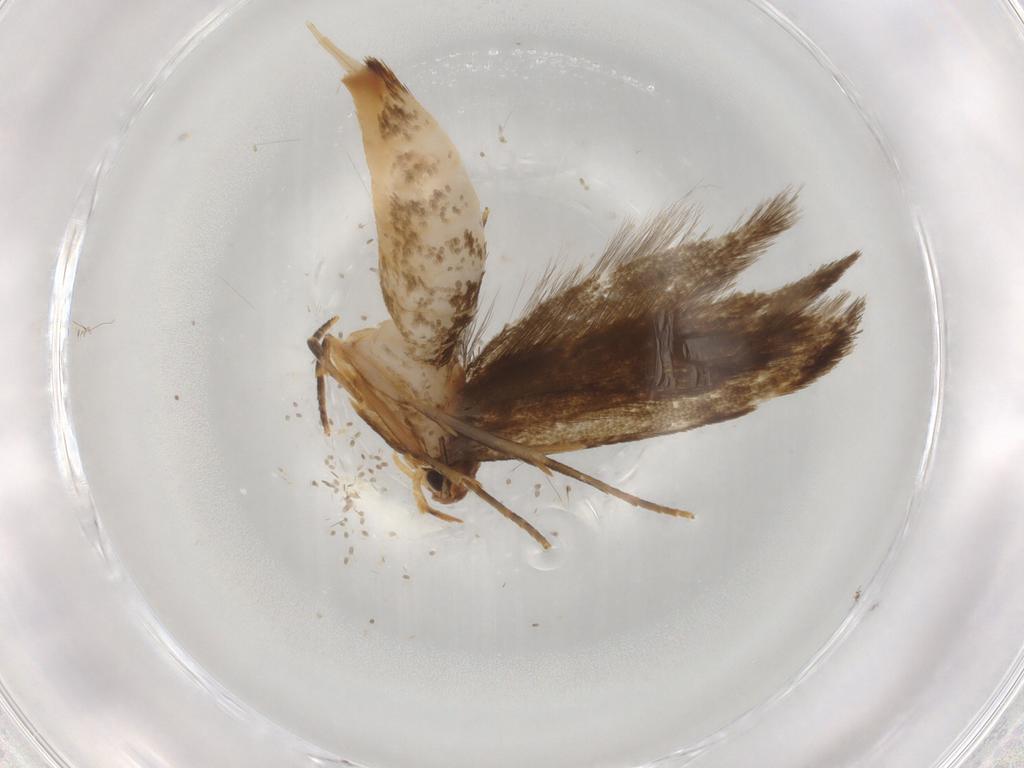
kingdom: Animalia
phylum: Arthropoda
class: Insecta
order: Lepidoptera
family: Tineidae
